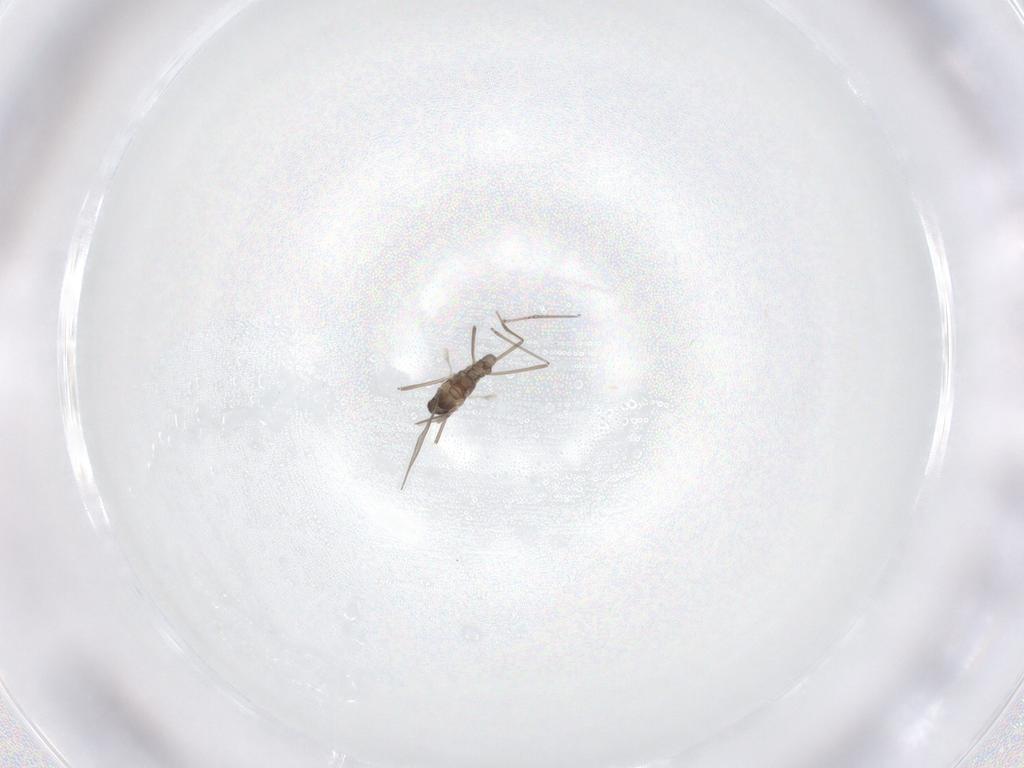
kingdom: Animalia
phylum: Arthropoda
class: Insecta
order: Diptera
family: Cecidomyiidae
